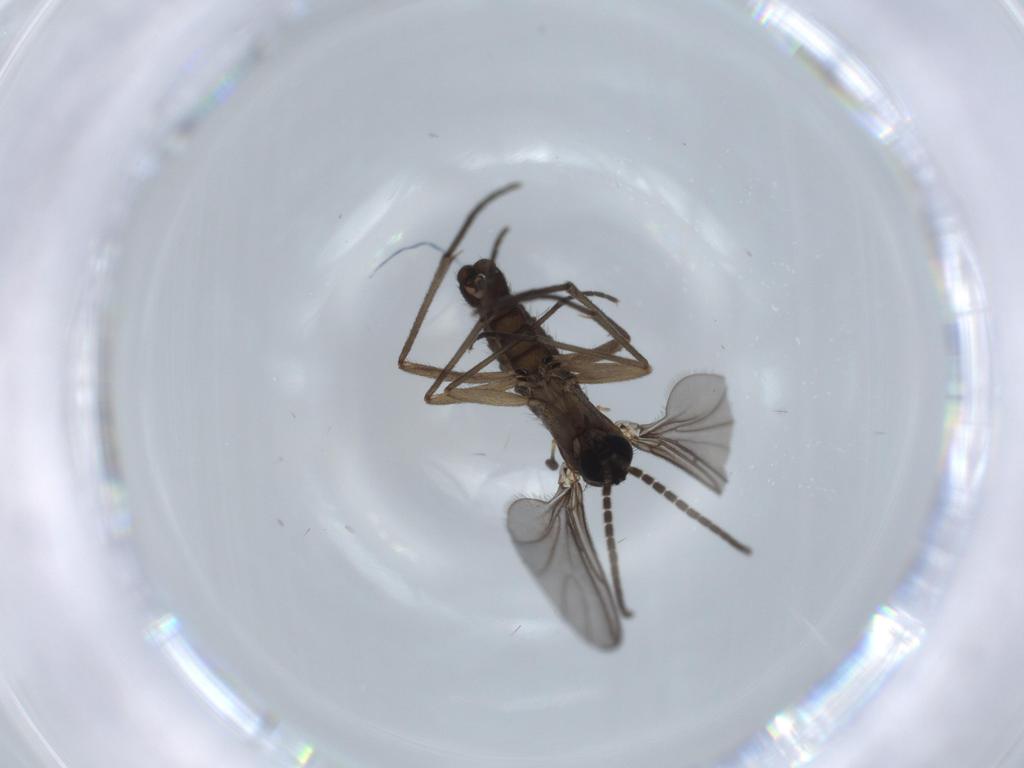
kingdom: Animalia
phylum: Arthropoda
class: Insecta
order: Diptera
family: Sciaridae
